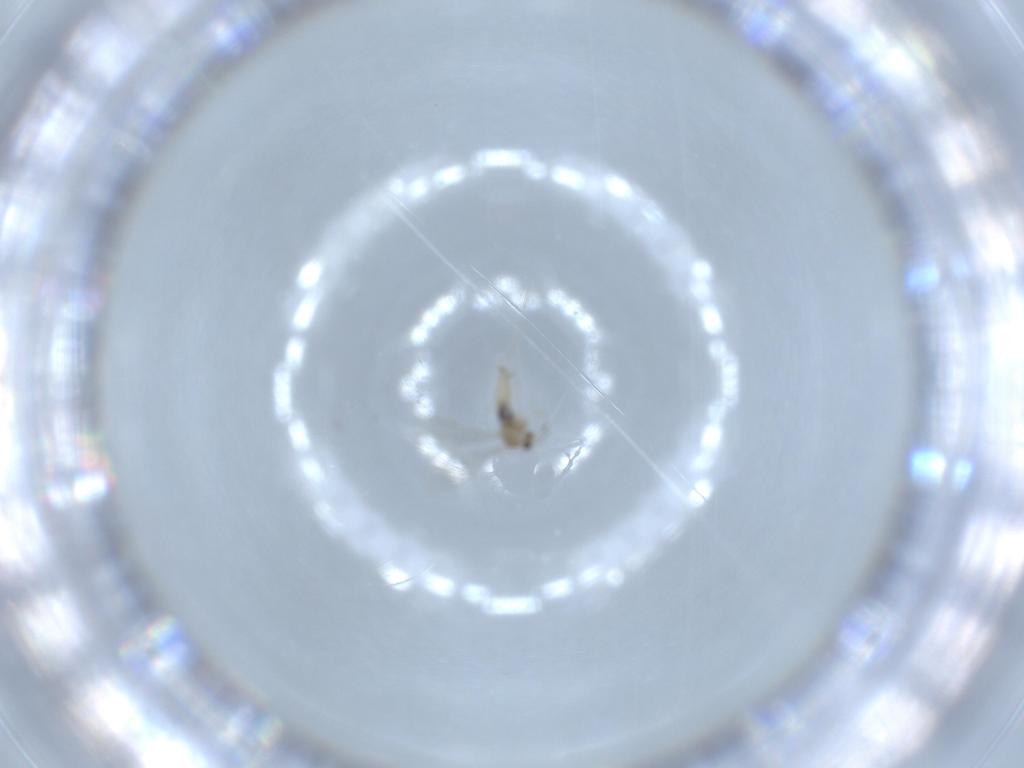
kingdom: Animalia
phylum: Arthropoda
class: Insecta
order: Diptera
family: Cecidomyiidae
